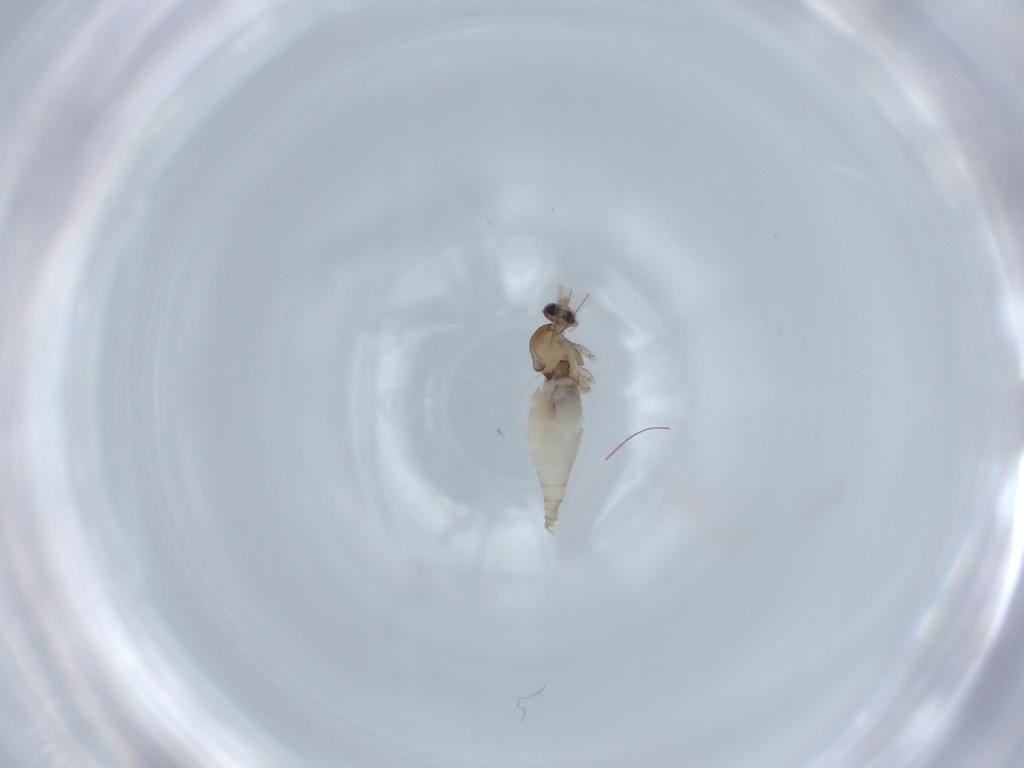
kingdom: Animalia
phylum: Arthropoda
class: Insecta
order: Diptera
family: Cecidomyiidae
